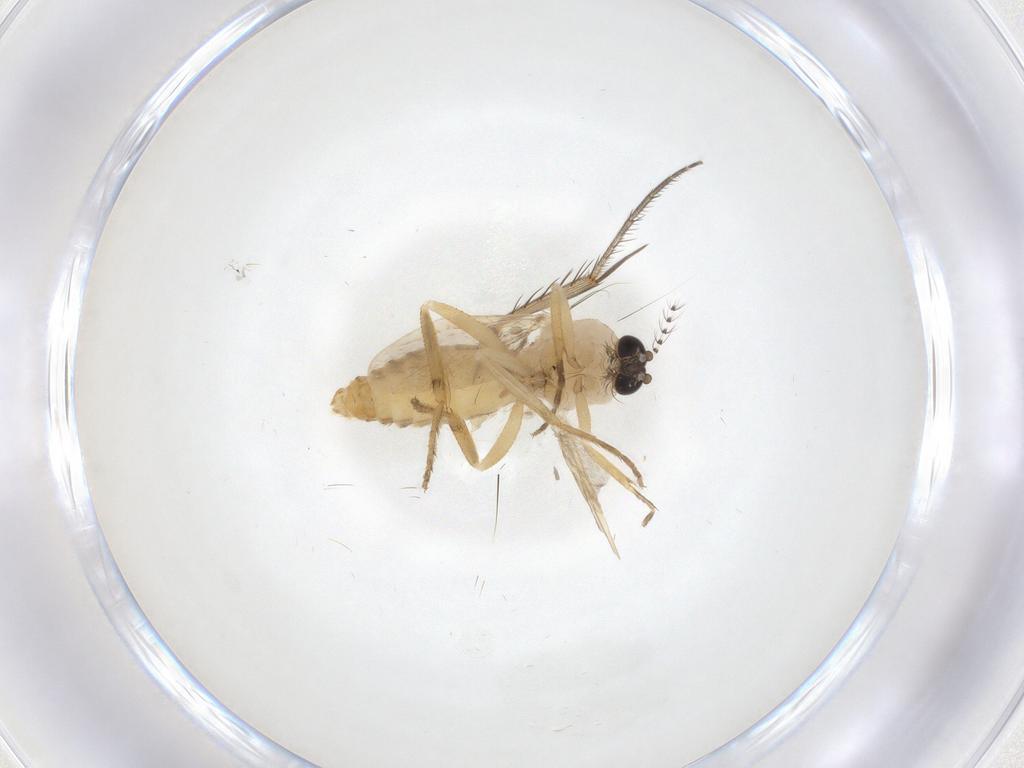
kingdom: Animalia
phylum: Arthropoda
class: Insecta
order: Diptera
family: Ceratopogonidae
